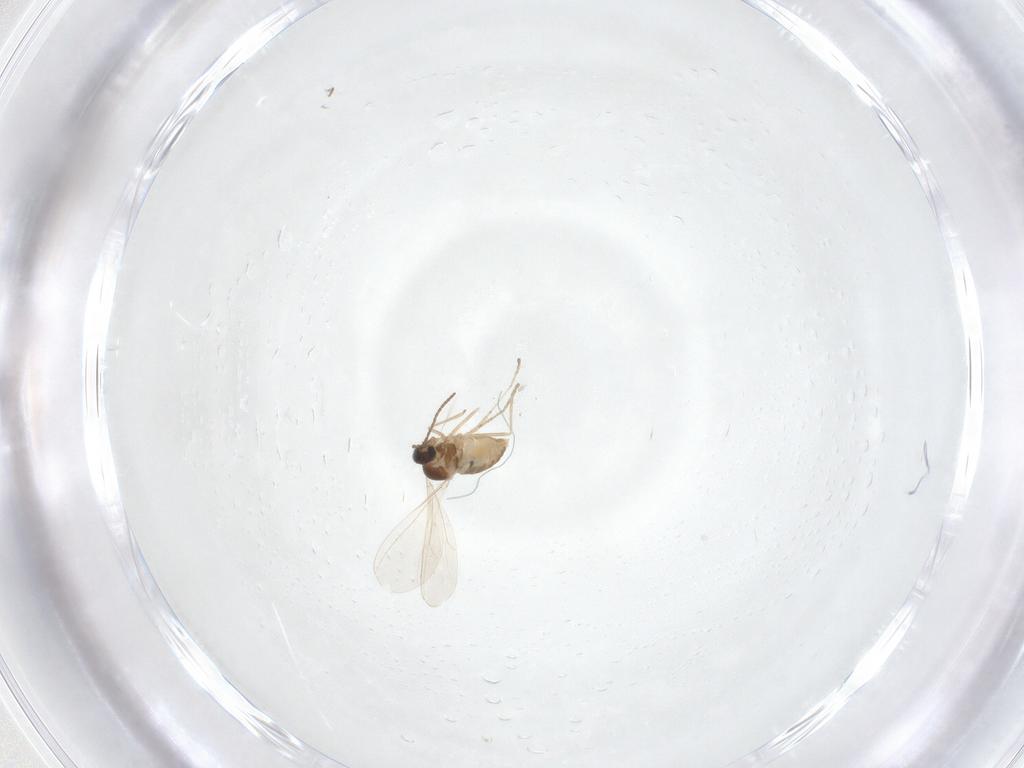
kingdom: Animalia
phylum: Arthropoda
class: Insecta
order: Diptera
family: Cecidomyiidae
